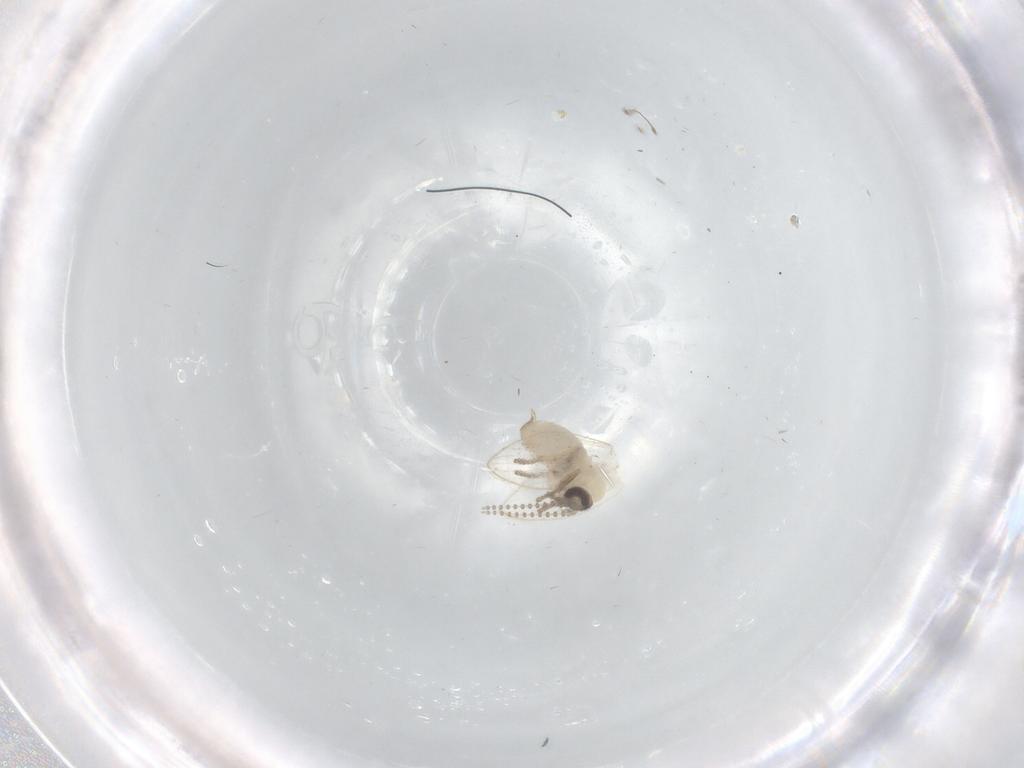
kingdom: Animalia
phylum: Arthropoda
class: Insecta
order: Diptera
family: Psychodidae
